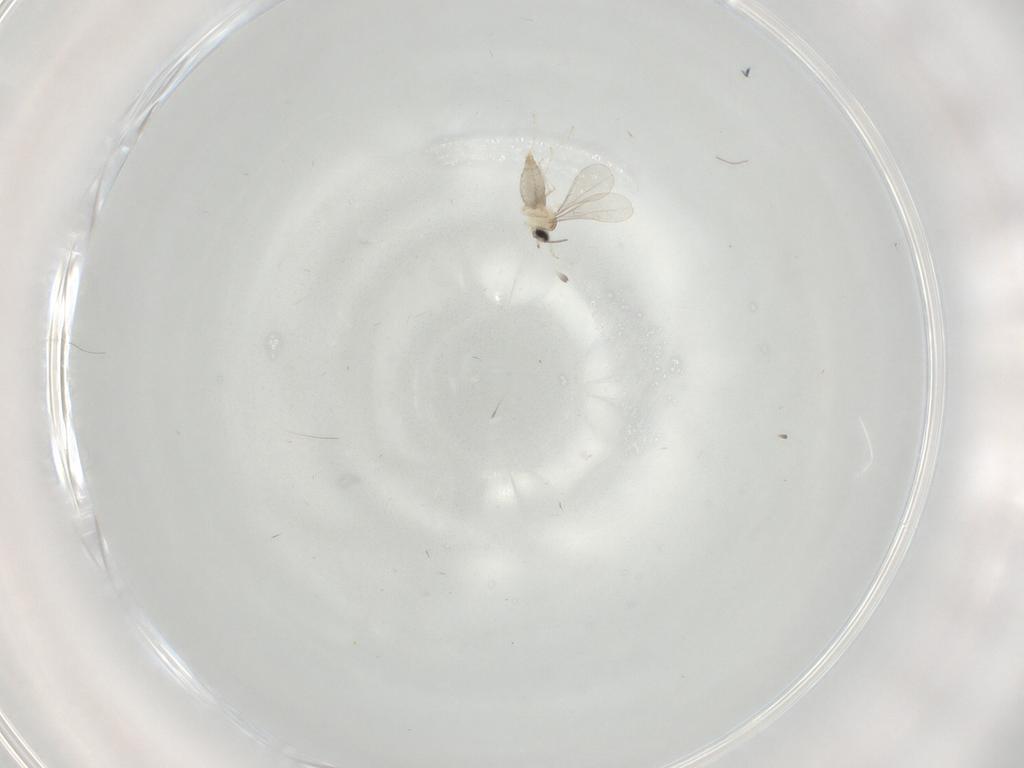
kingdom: Animalia
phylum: Arthropoda
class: Insecta
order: Diptera
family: Cecidomyiidae
